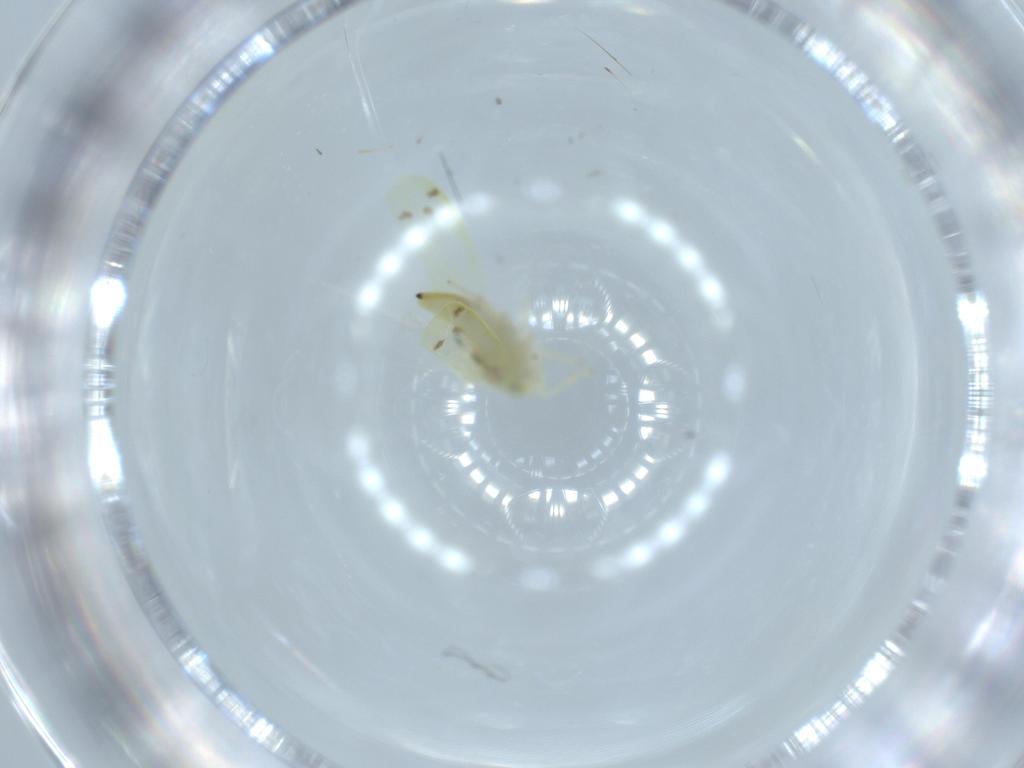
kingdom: Animalia
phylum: Arthropoda
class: Insecta
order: Hemiptera
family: Cicadellidae
